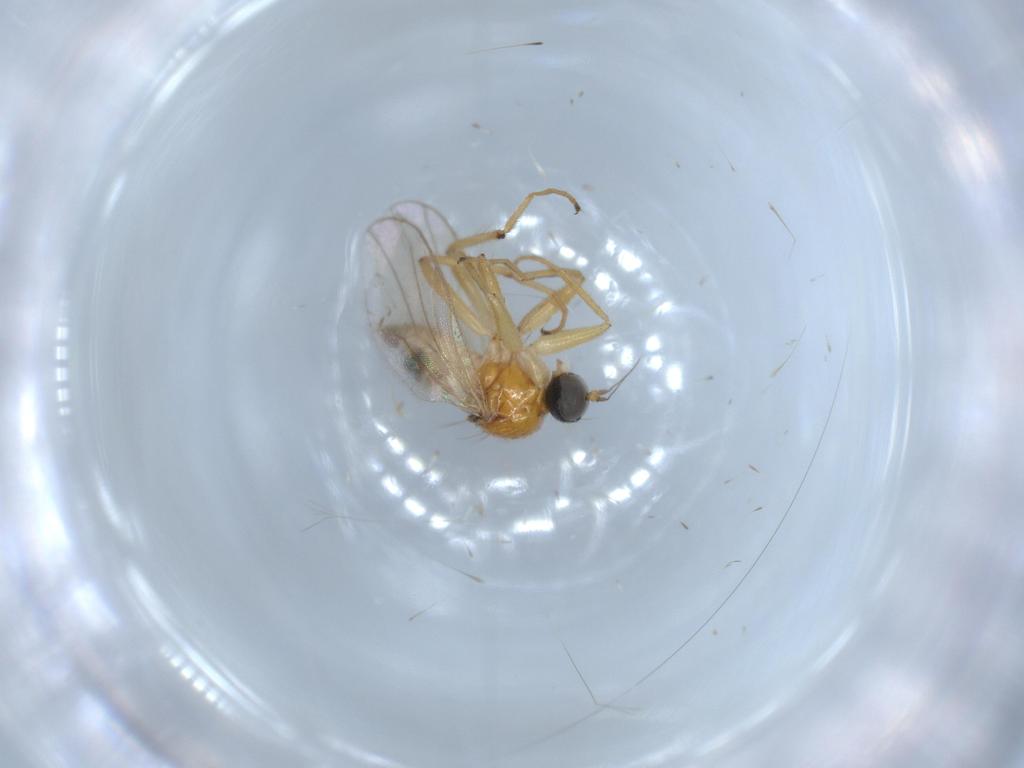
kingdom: Animalia
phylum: Arthropoda
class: Insecta
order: Diptera
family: Hybotidae
